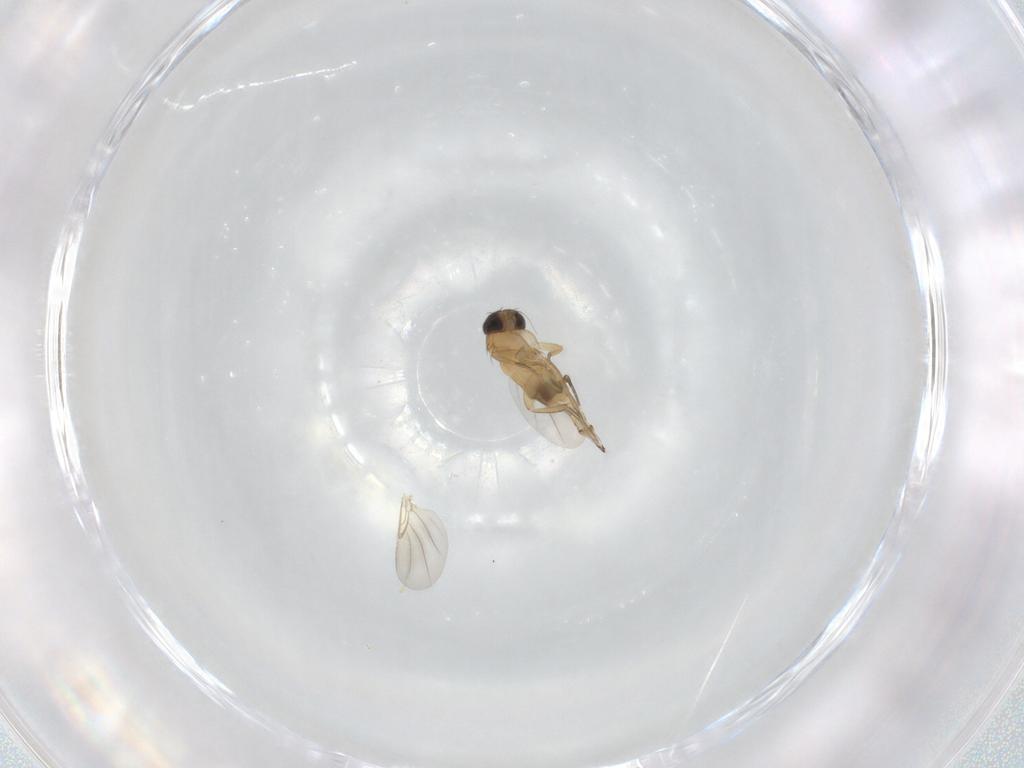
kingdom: Animalia
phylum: Arthropoda
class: Insecta
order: Diptera
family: Phoridae
